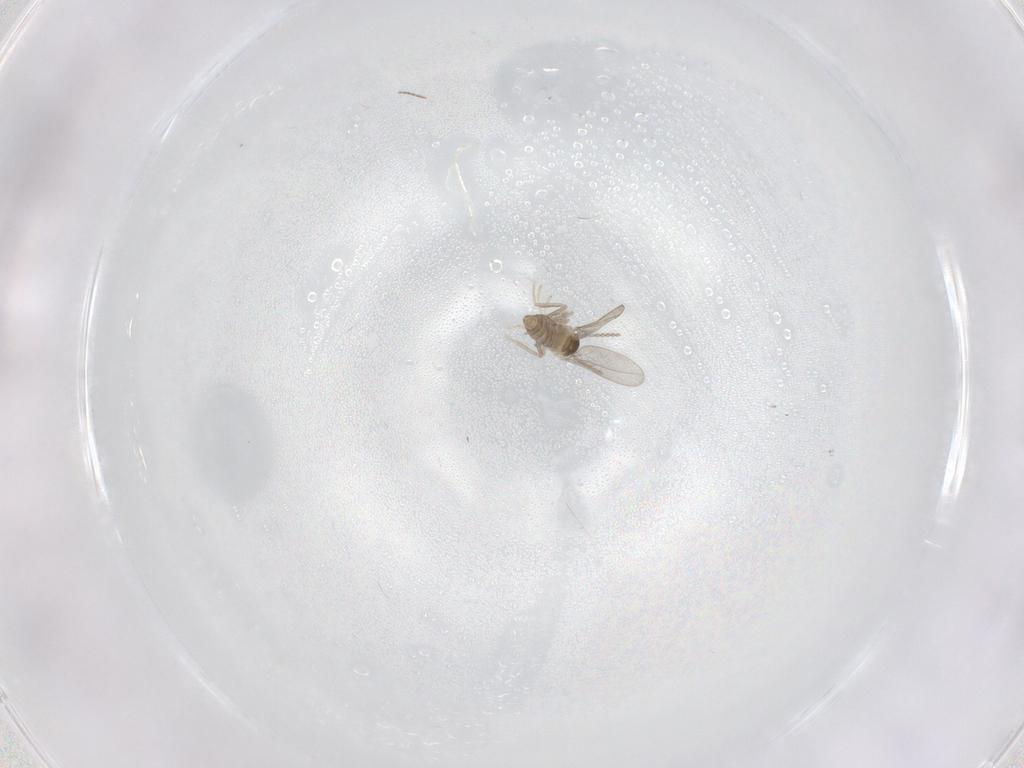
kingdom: Animalia
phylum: Arthropoda
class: Insecta
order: Diptera
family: Cecidomyiidae
